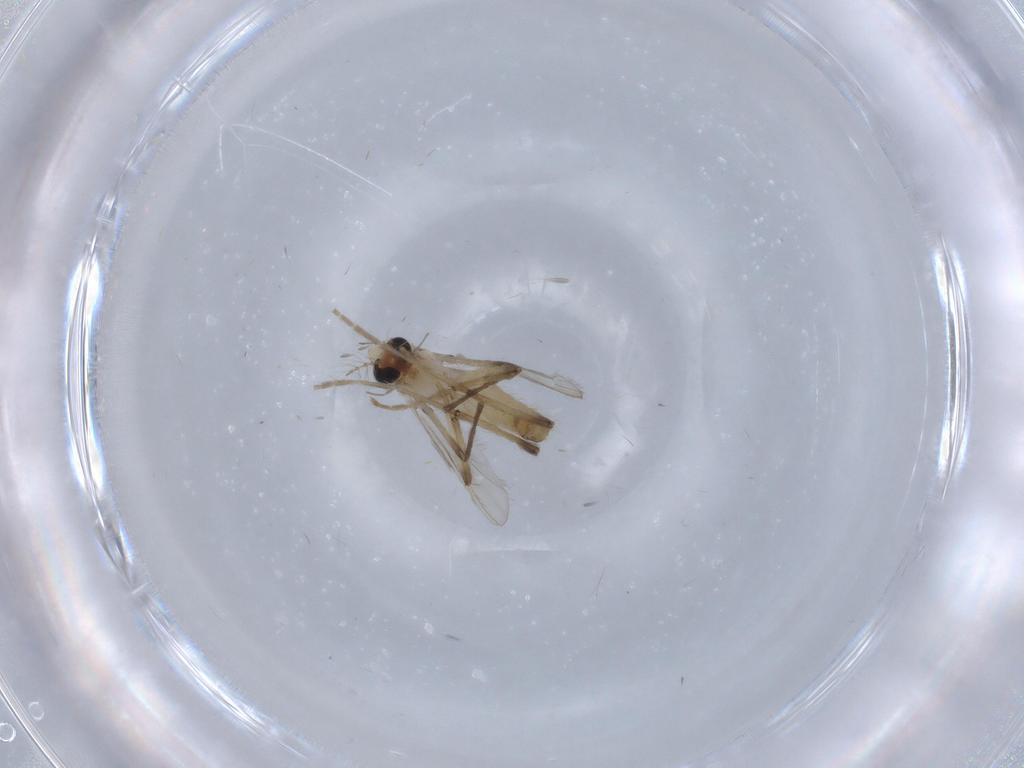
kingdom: Animalia
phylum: Arthropoda
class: Insecta
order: Diptera
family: Chironomidae
